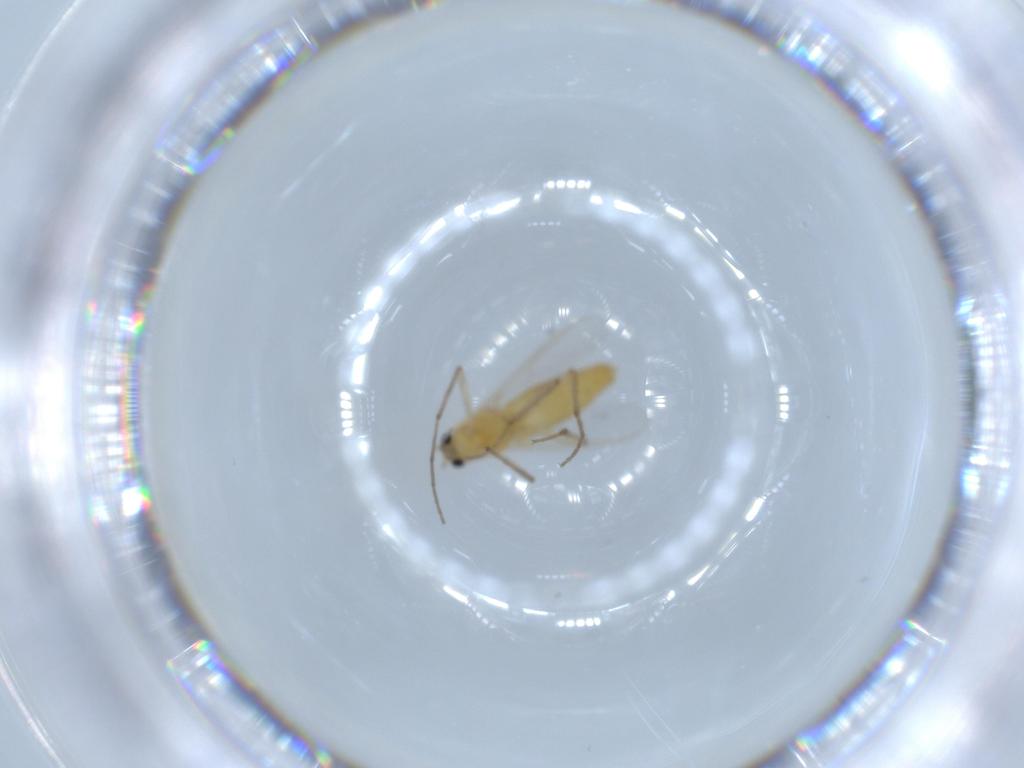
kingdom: Animalia
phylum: Arthropoda
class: Insecta
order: Diptera
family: Chironomidae
